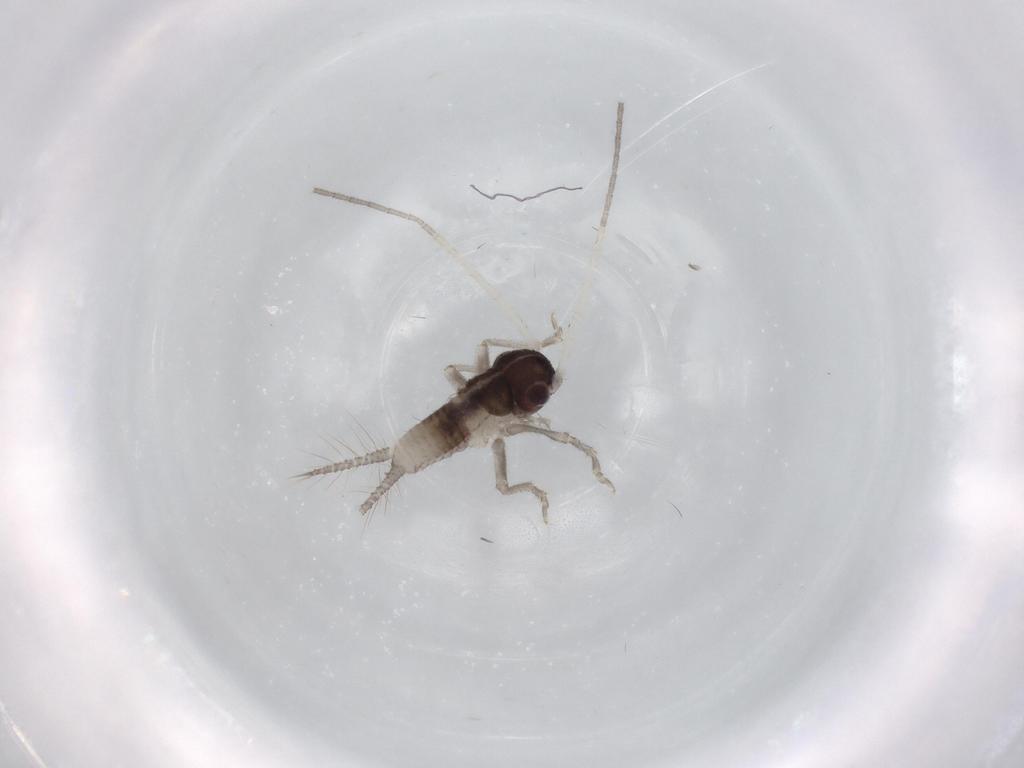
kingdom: Animalia
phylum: Arthropoda
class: Insecta
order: Orthoptera
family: Trigonidiidae
